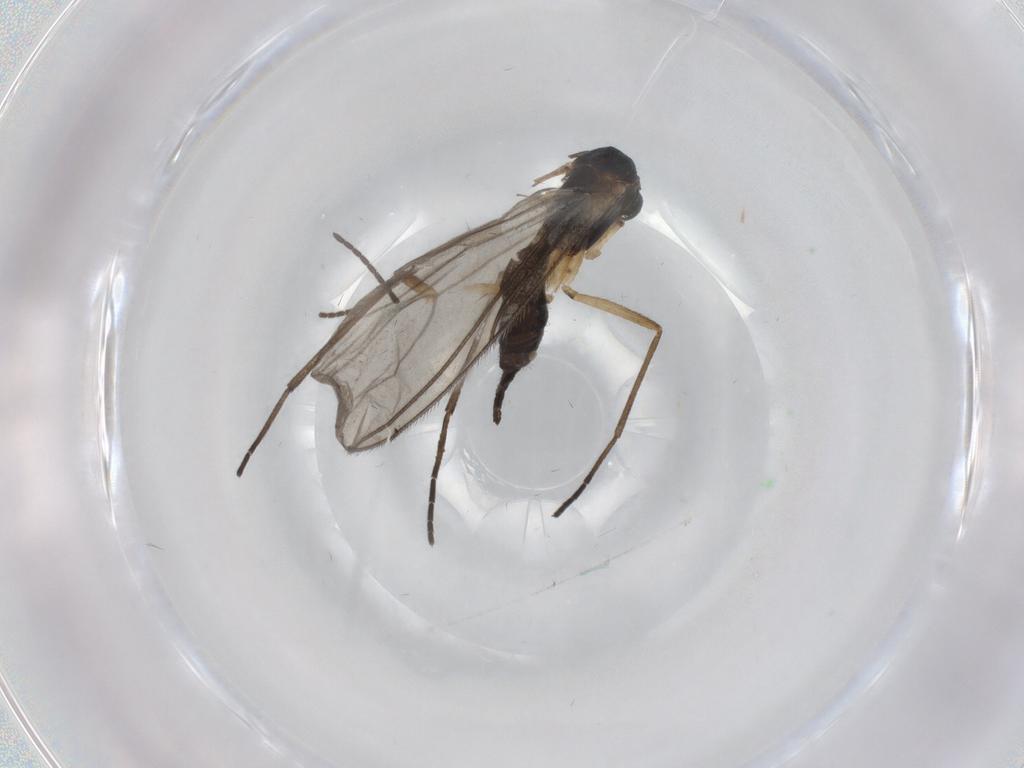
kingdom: Animalia
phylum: Arthropoda
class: Insecta
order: Diptera
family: Sciaridae
